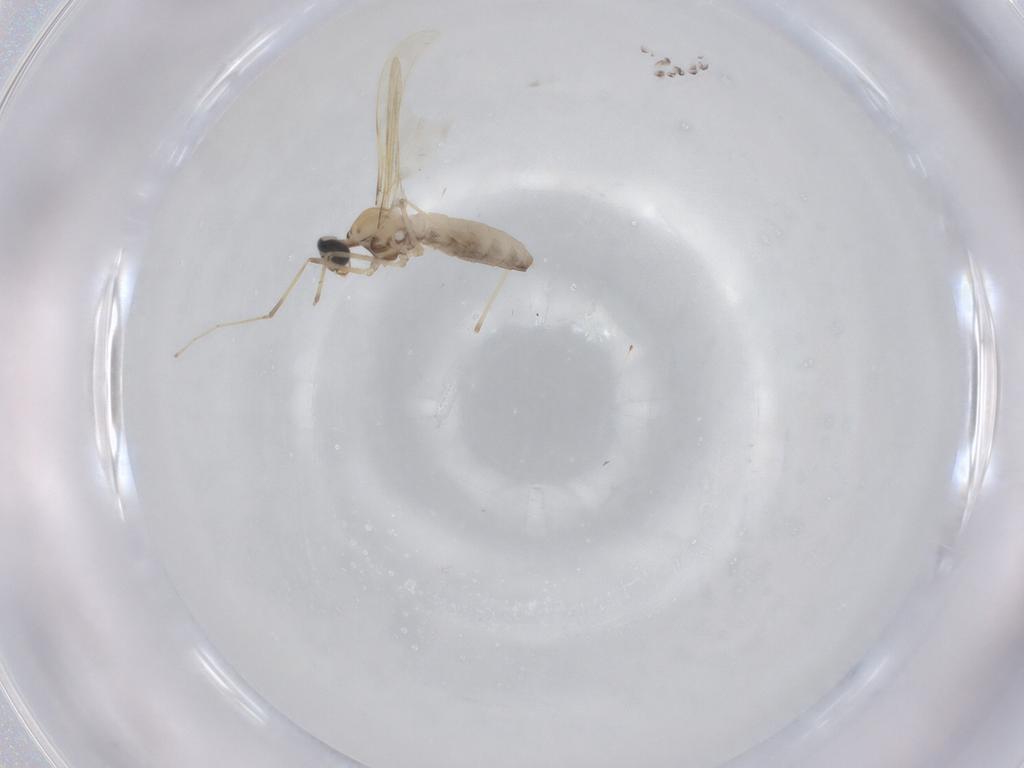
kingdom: Animalia
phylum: Arthropoda
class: Insecta
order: Diptera
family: Cecidomyiidae
